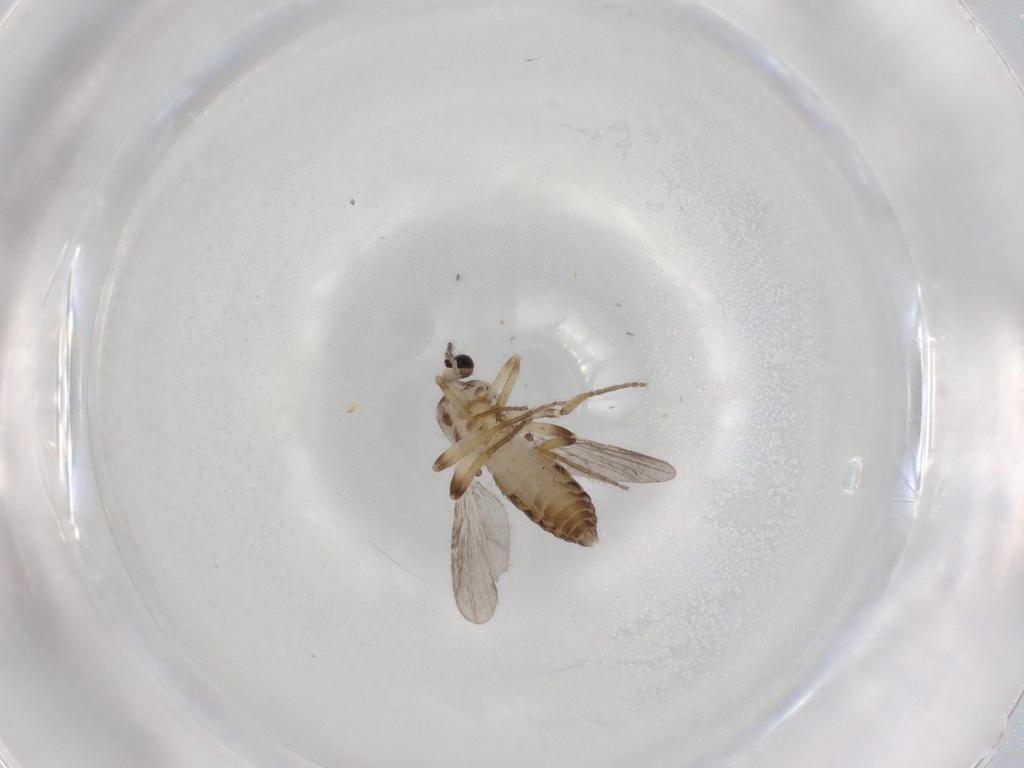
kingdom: Animalia
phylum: Arthropoda
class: Insecta
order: Diptera
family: Ceratopogonidae
